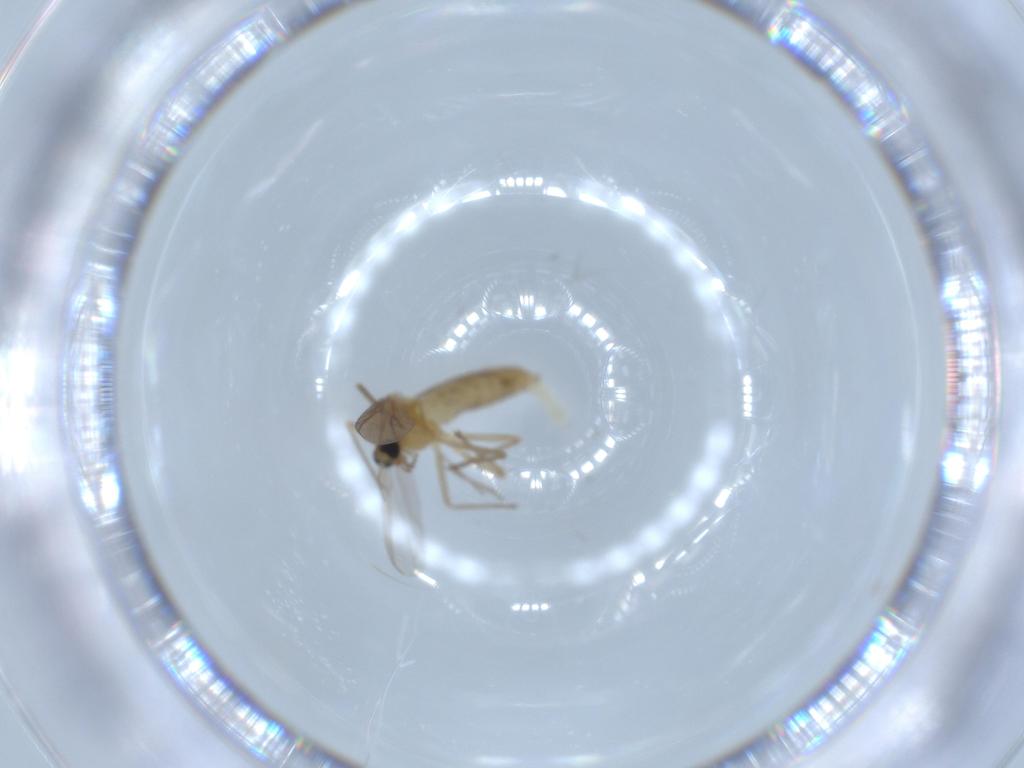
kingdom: Animalia
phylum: Arthropoda
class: Insecta
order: Diptera
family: Chironomidae
